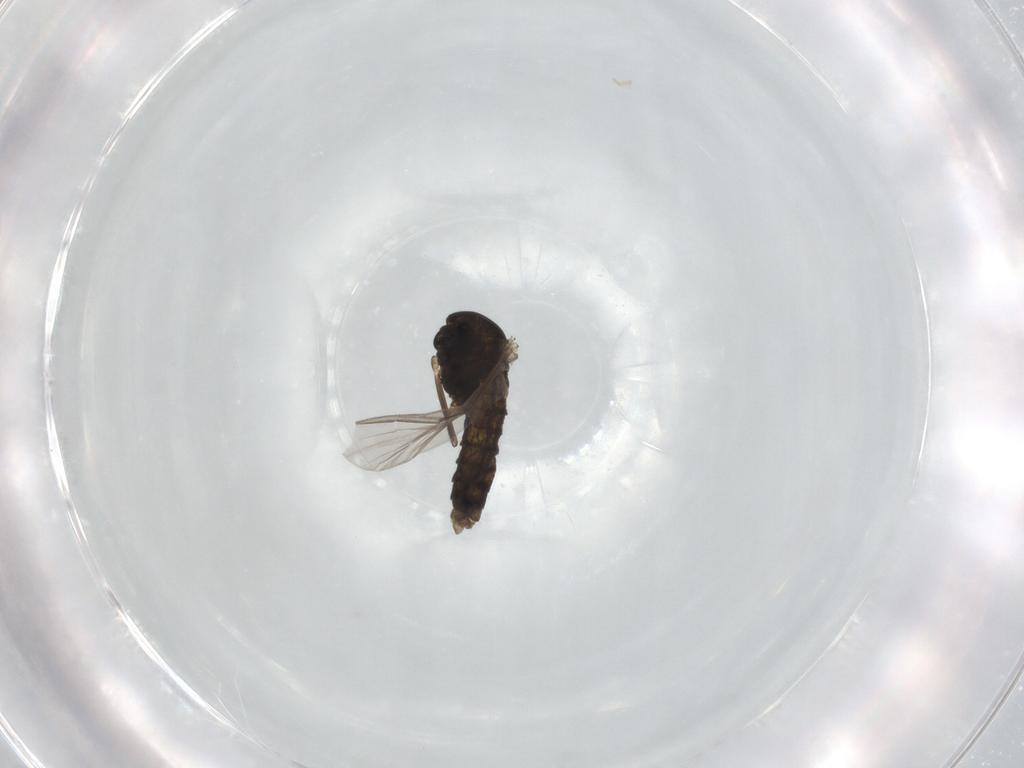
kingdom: Animalia
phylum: Arthropoda
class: Insecta
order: Diptera
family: Chironomidae
